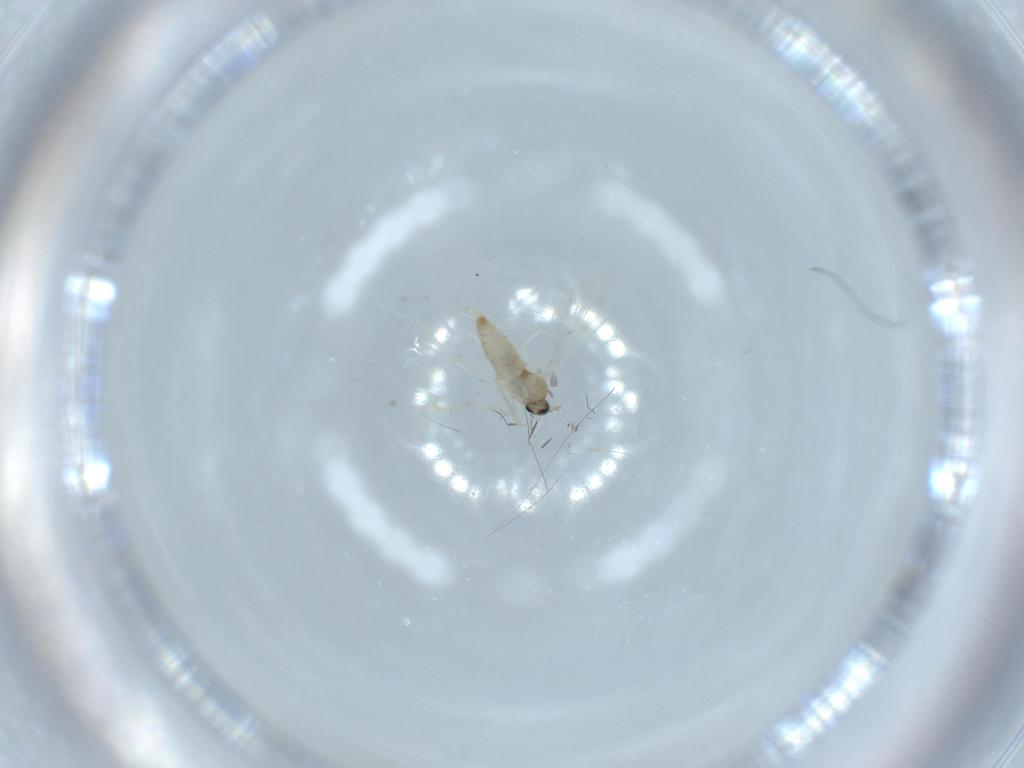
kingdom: Animalia
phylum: Arthropoda
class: Insecta
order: Diptera
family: Cecidomyiidae
